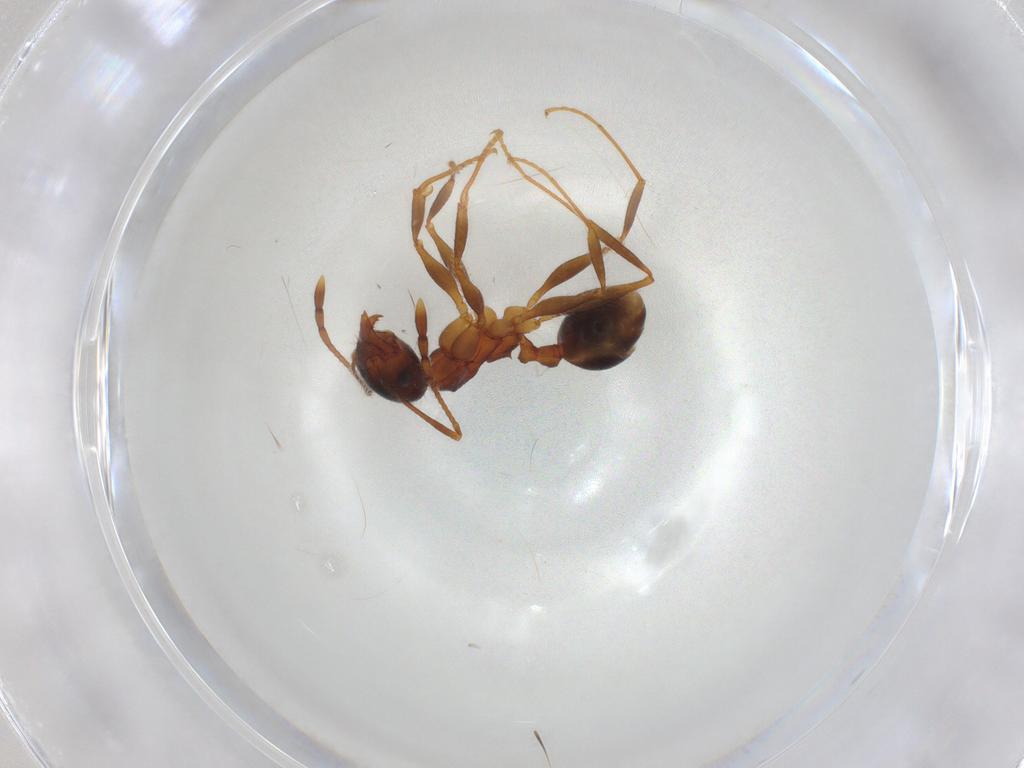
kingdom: Animalia
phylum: Arthropoda
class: Insecta
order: Hymenoptera
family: Formicidae
